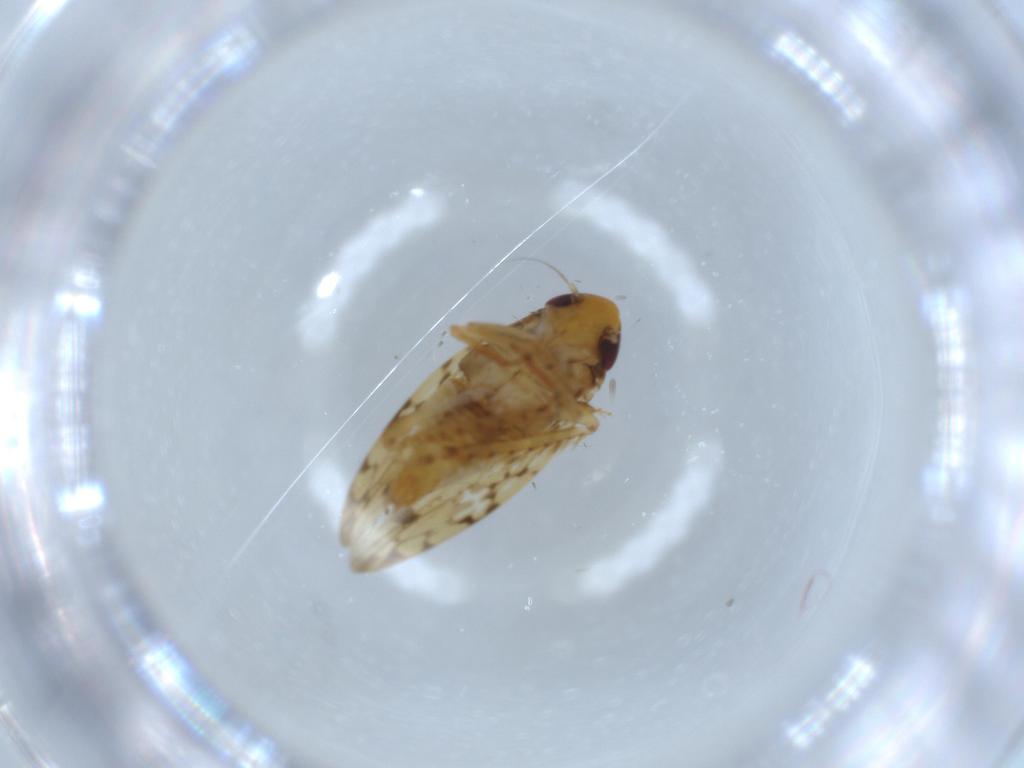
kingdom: Animalia
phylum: Arthropoda
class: Insecta
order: Hemiptera
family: Cicadellidae
